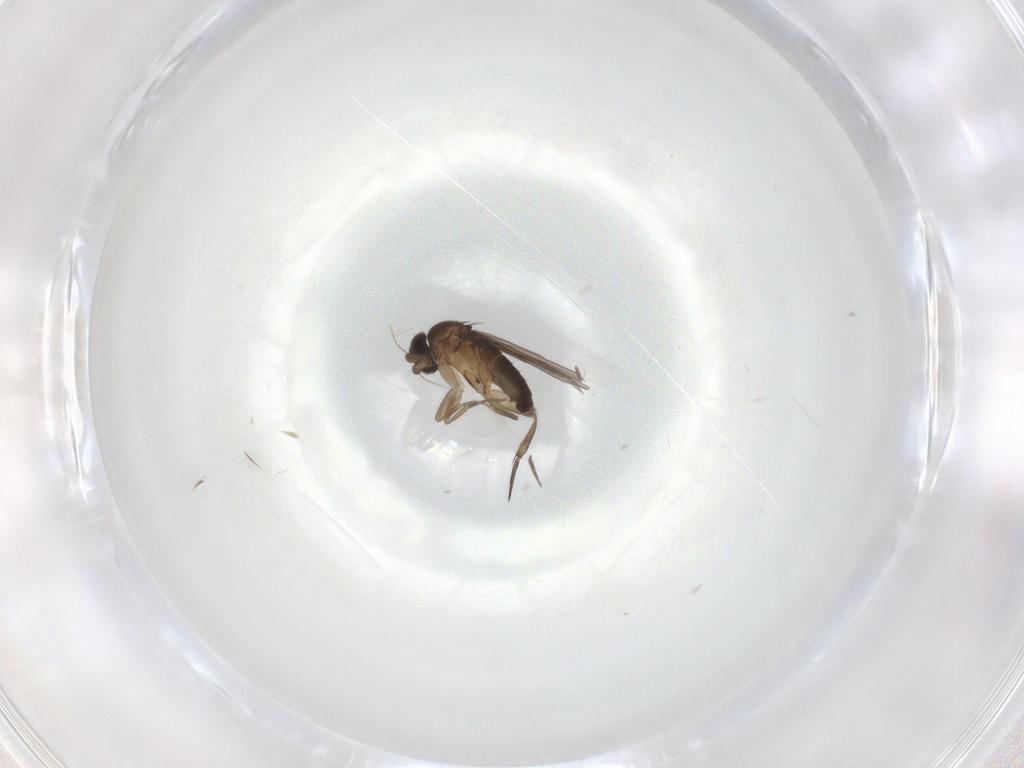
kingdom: Animalia
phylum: Arthropoda
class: Insecta
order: Diptera
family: Phoridae
